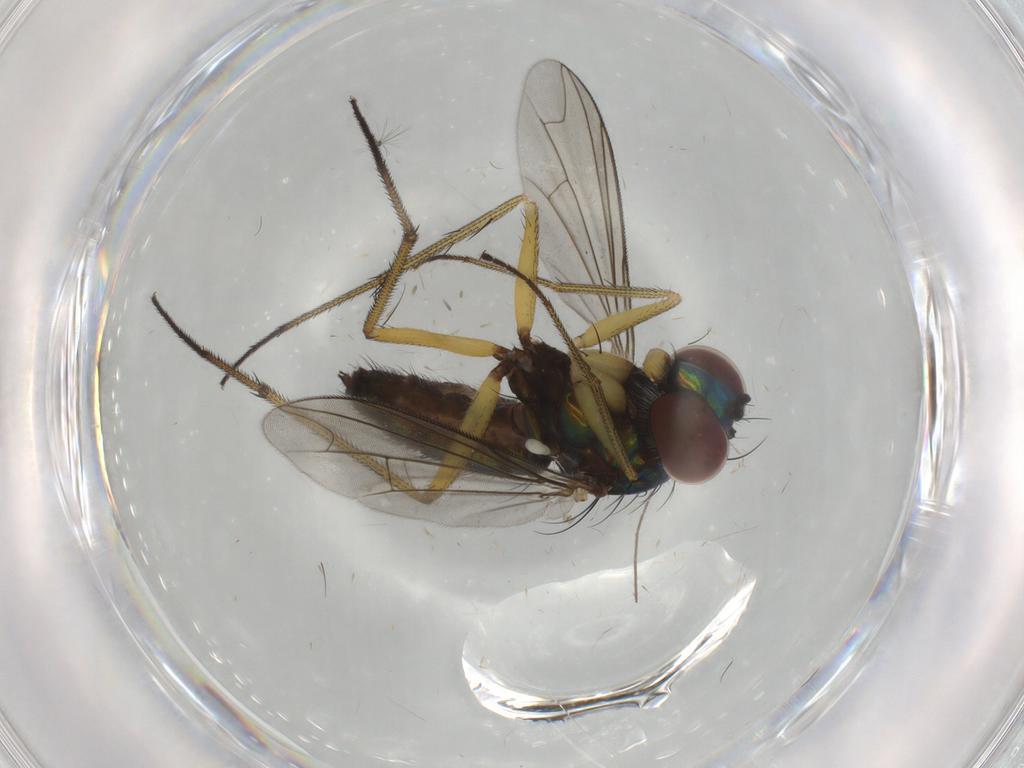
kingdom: Animalia
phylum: Arthropoda
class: Insecta
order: Diptera
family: Dolichopodidae
